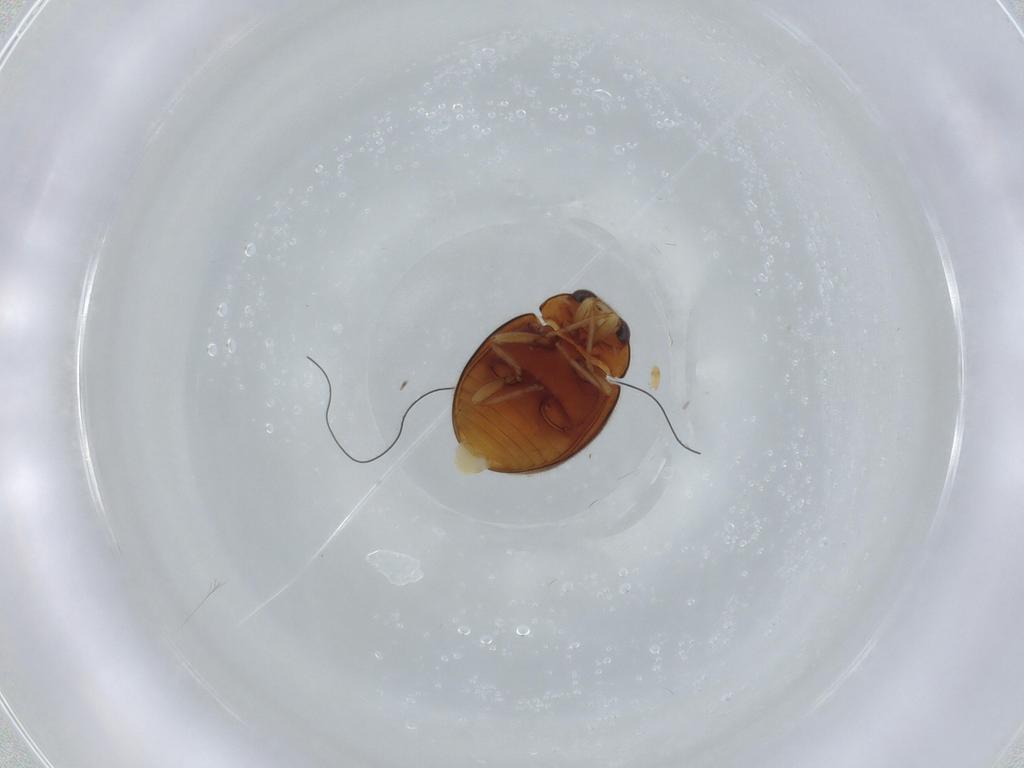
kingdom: Animalia
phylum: Arthropoda
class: Insecta
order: Coleoptera
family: Coccinellidae
